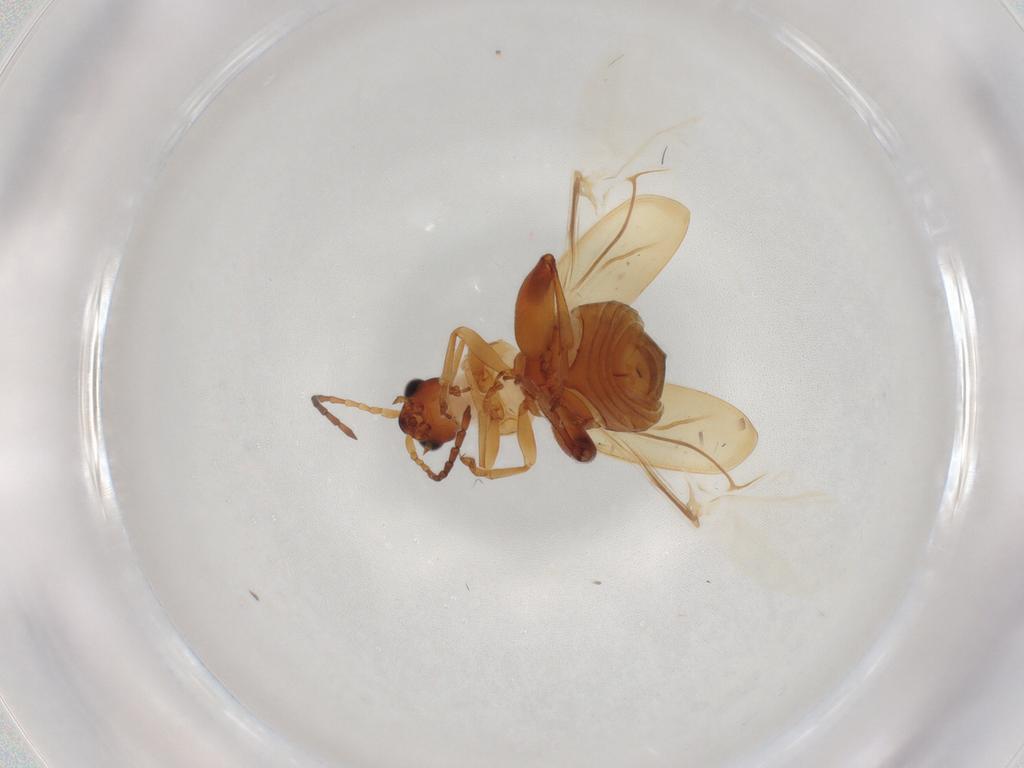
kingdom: Animalia
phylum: Arthropoda
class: Insecta
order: Coleoptera
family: Chrysomelidae
